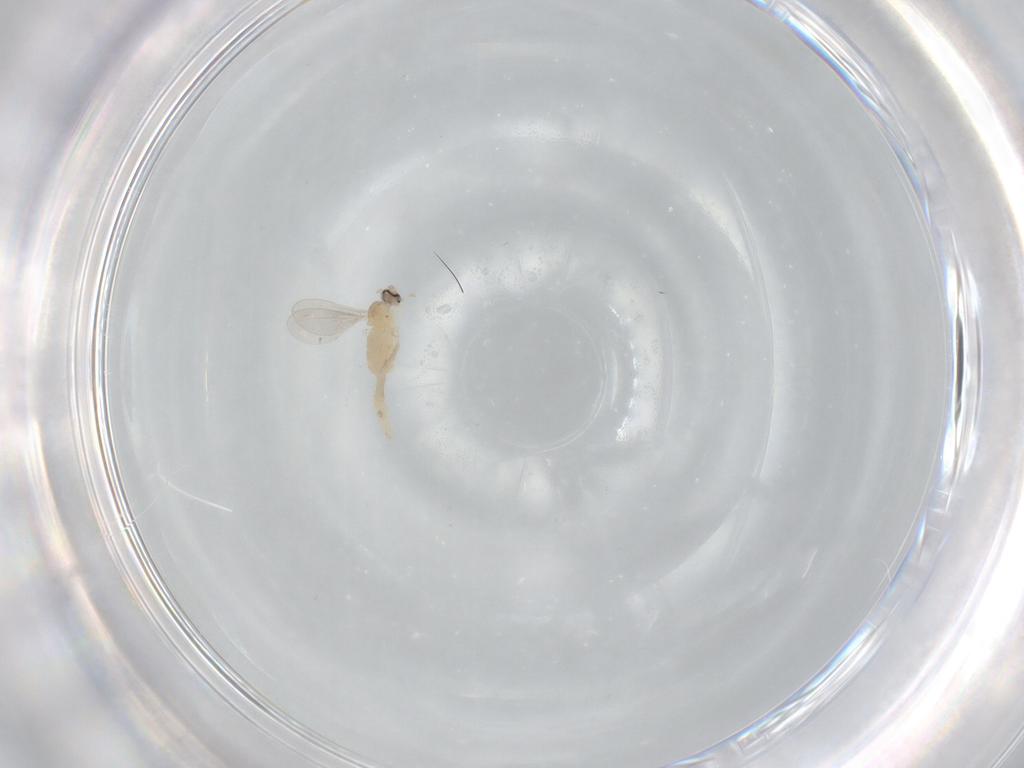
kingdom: Animalia
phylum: Arthropoda
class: Insecta
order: Diptera
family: Cecidomyiidae
